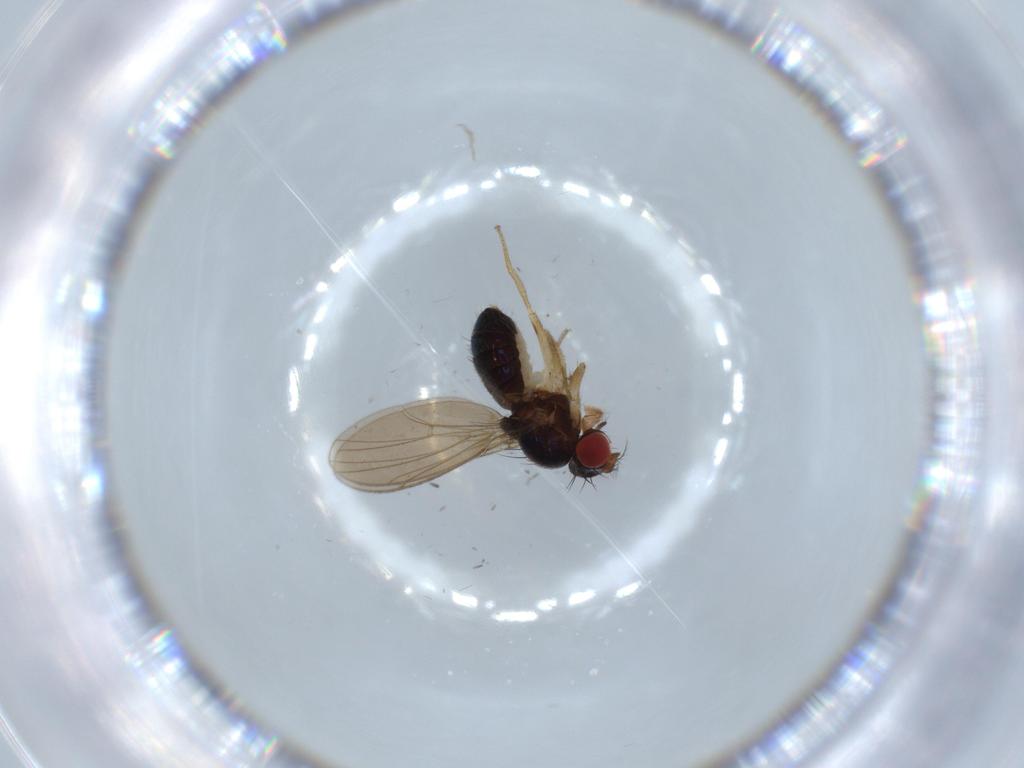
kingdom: Animalia
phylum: Arthropoda
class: Insecta
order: Diptera
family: Drosophilidae
